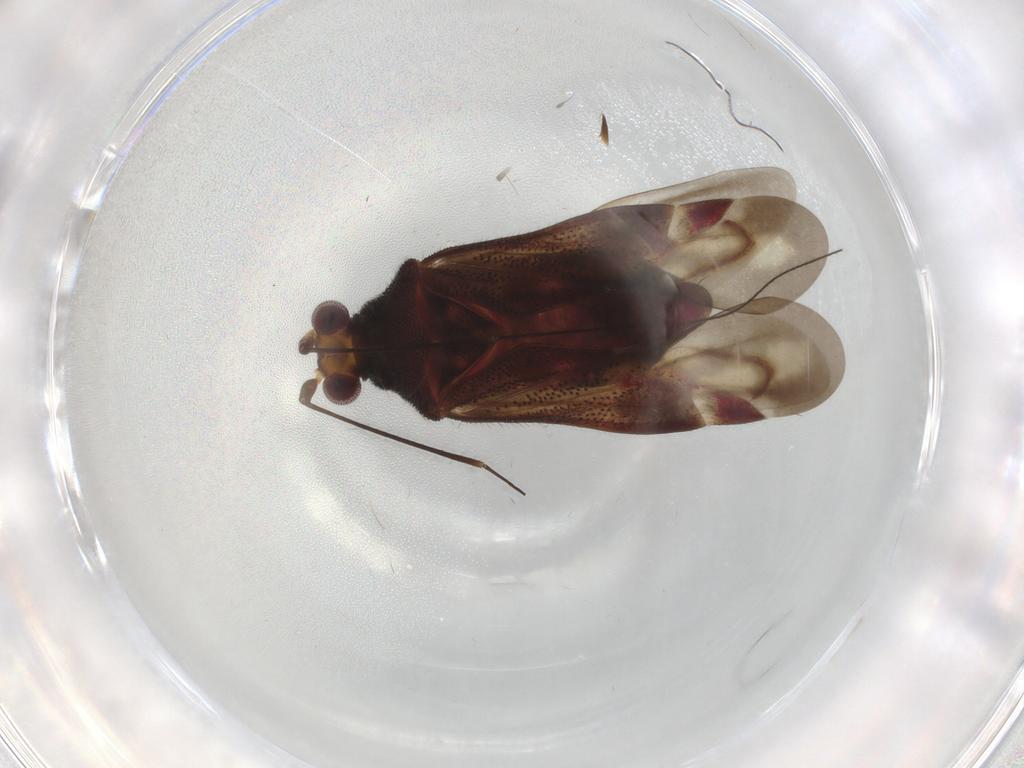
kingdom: Animalia
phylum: Arthropoda
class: Insecta
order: Hemiptera
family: Miridae
